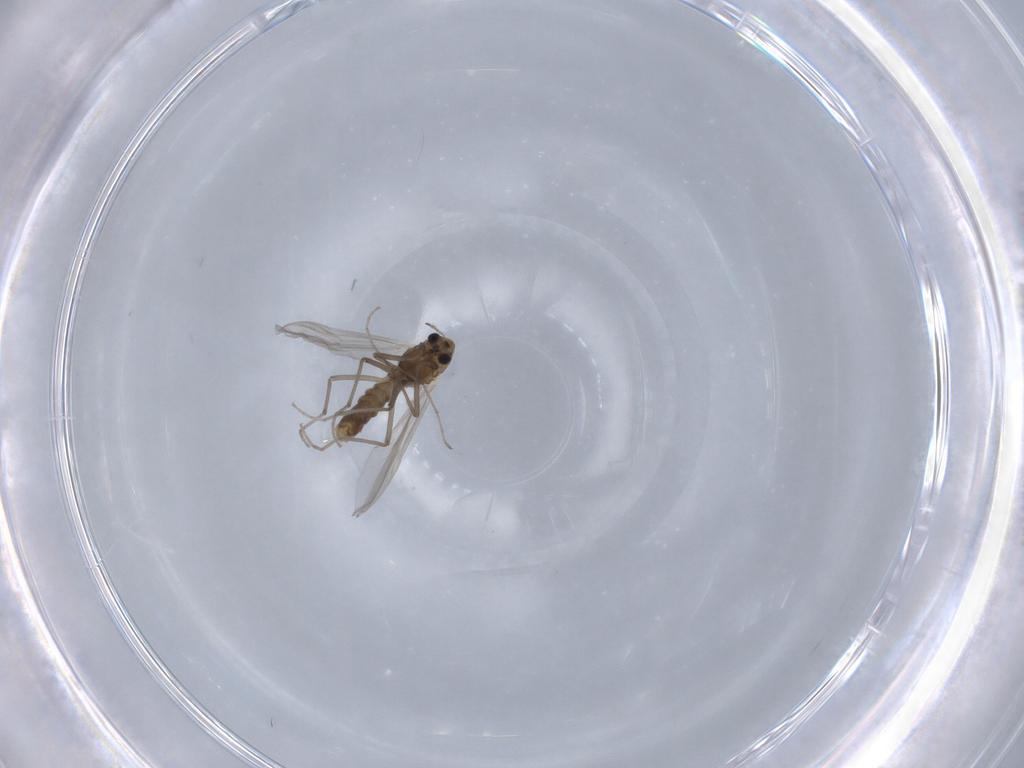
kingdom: Animalia
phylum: Arthropoda
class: Insecta
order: Diptera
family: Chironomidae
